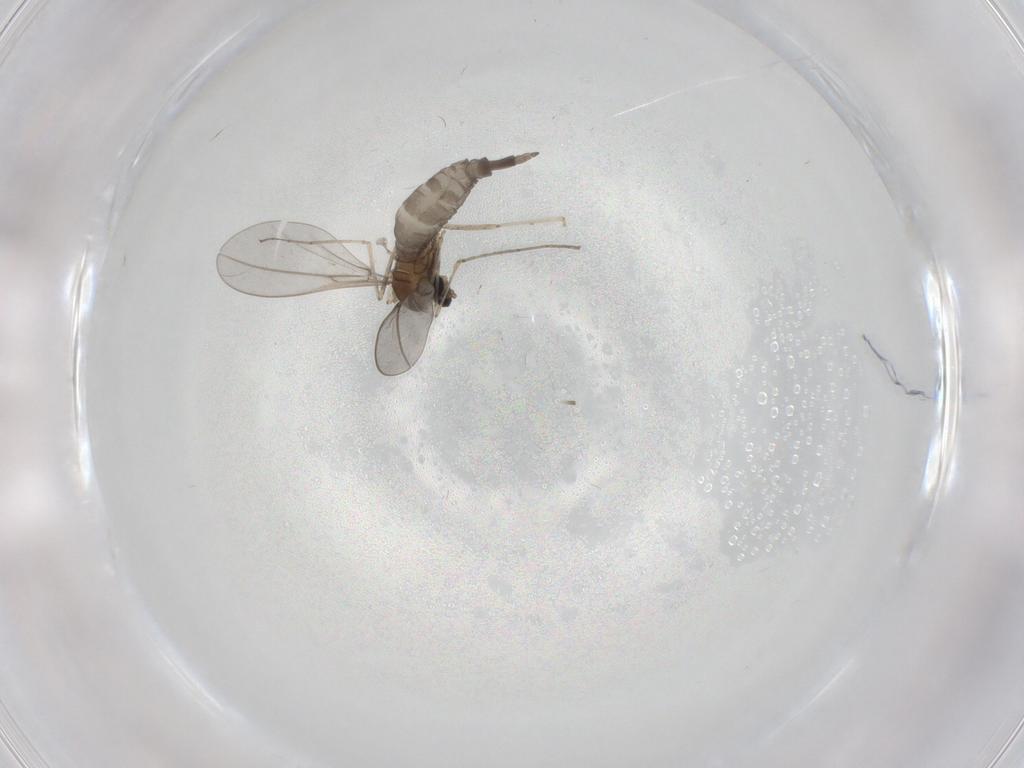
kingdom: Animalia
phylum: Arthropoda
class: Insecta
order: Diptera
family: Cecidomyiidae
